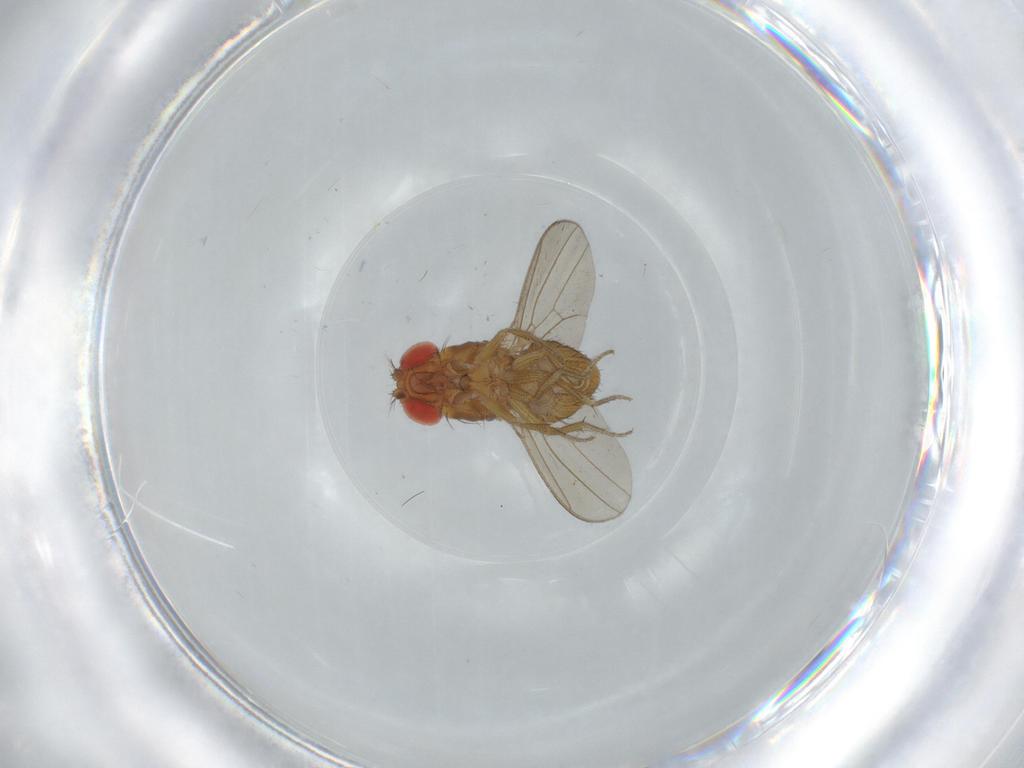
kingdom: Animalia
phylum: Arthropoda
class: Insecta
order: Diptera
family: Drosophilidae
